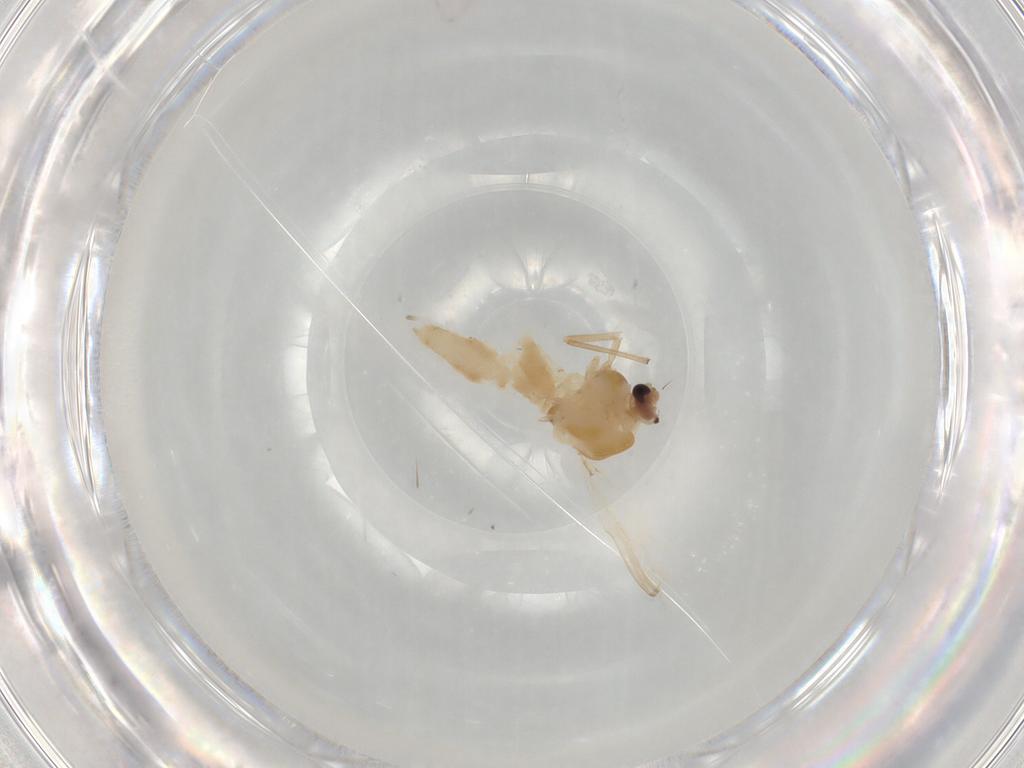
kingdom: Animalia
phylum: Arthropoda
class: Insecta
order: Diptera
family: Chironomidae
